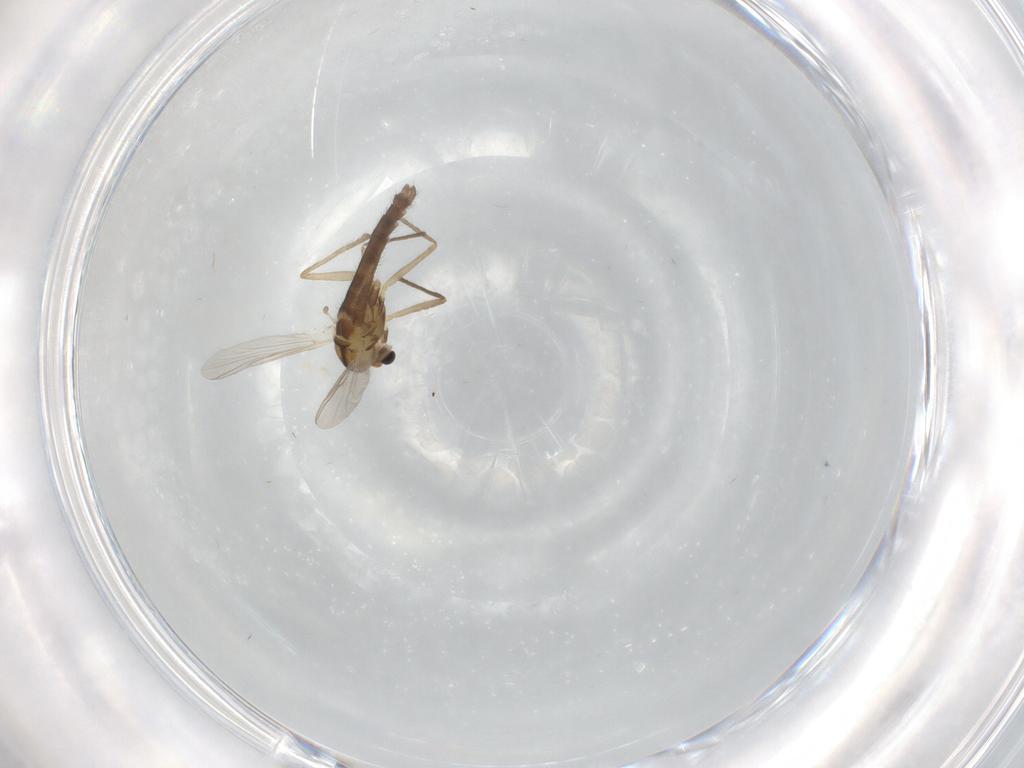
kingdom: Animalia
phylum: Arthropoda
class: Insecta
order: Diptera
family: Chironomidae
